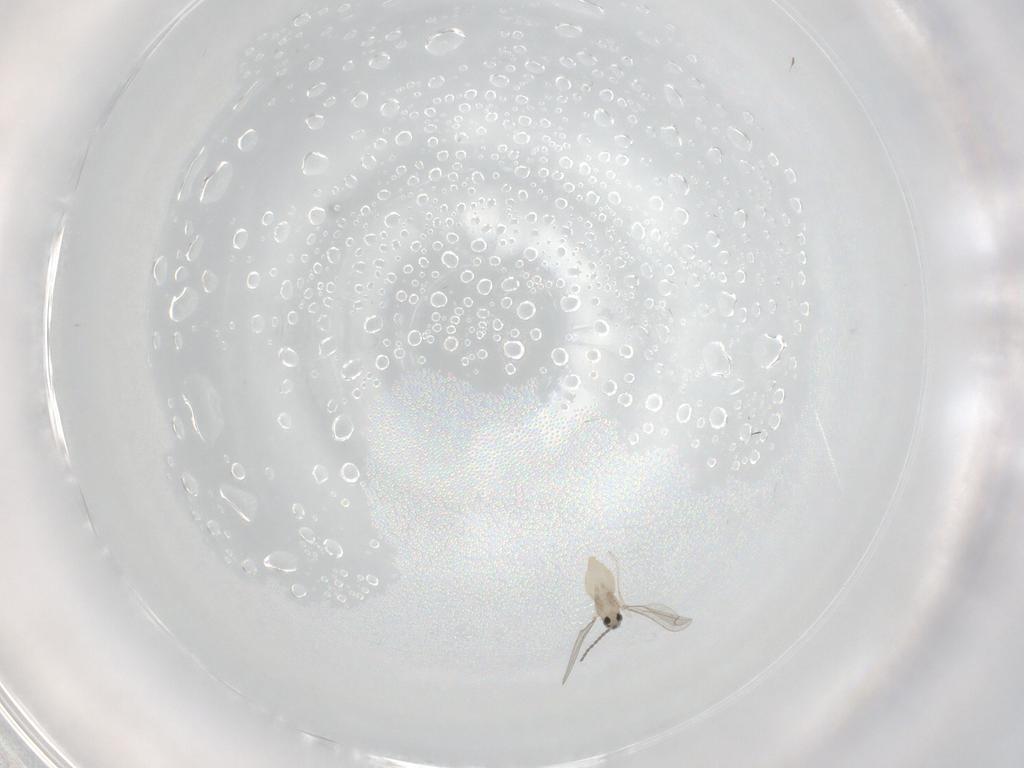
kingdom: Animalia
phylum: Arthropoda
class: Insecta
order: Diptera
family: Cecidomyiidae
